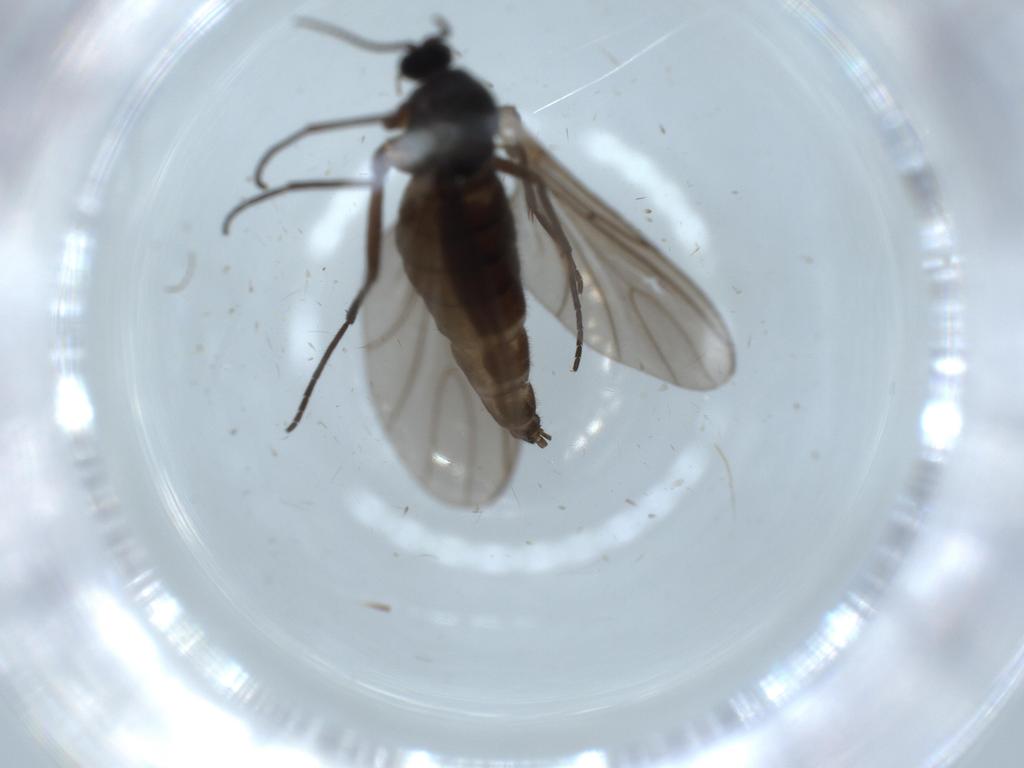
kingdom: Animalia
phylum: Arthropoda
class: Insecta
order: Diptera
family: Sciaridae
